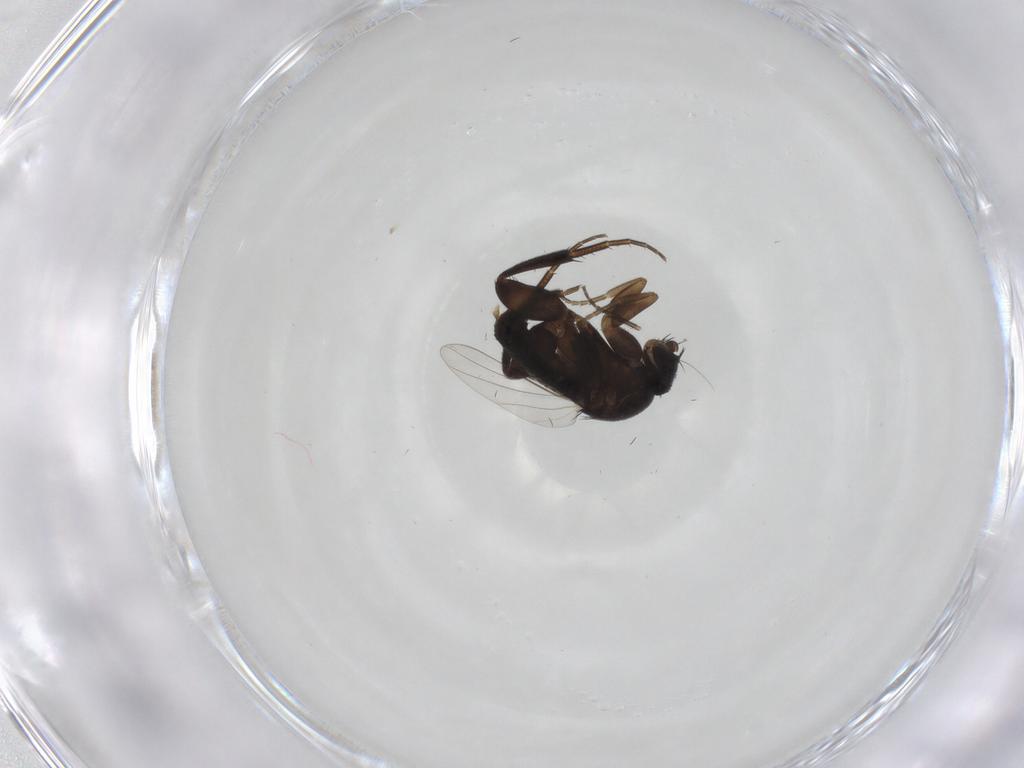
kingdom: Animalia
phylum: Arthropoda
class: Insecta
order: Diptera
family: Phoridae
